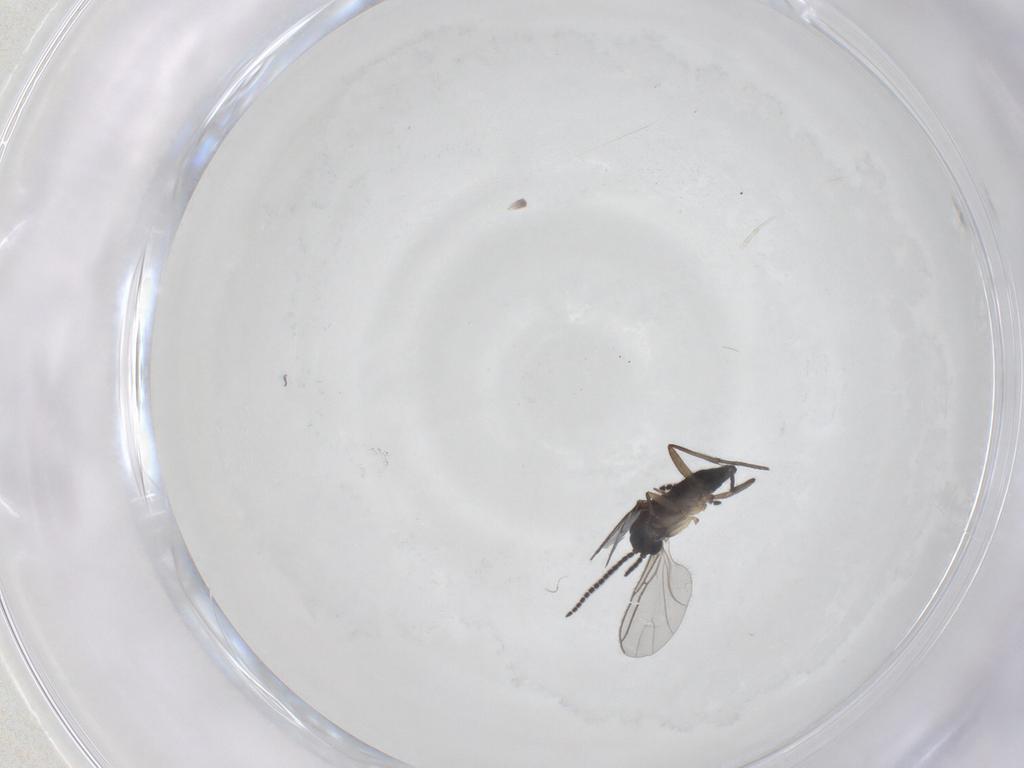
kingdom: Animalia
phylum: Arthropoda
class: Insecta
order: Diptera
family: Sciaridae
